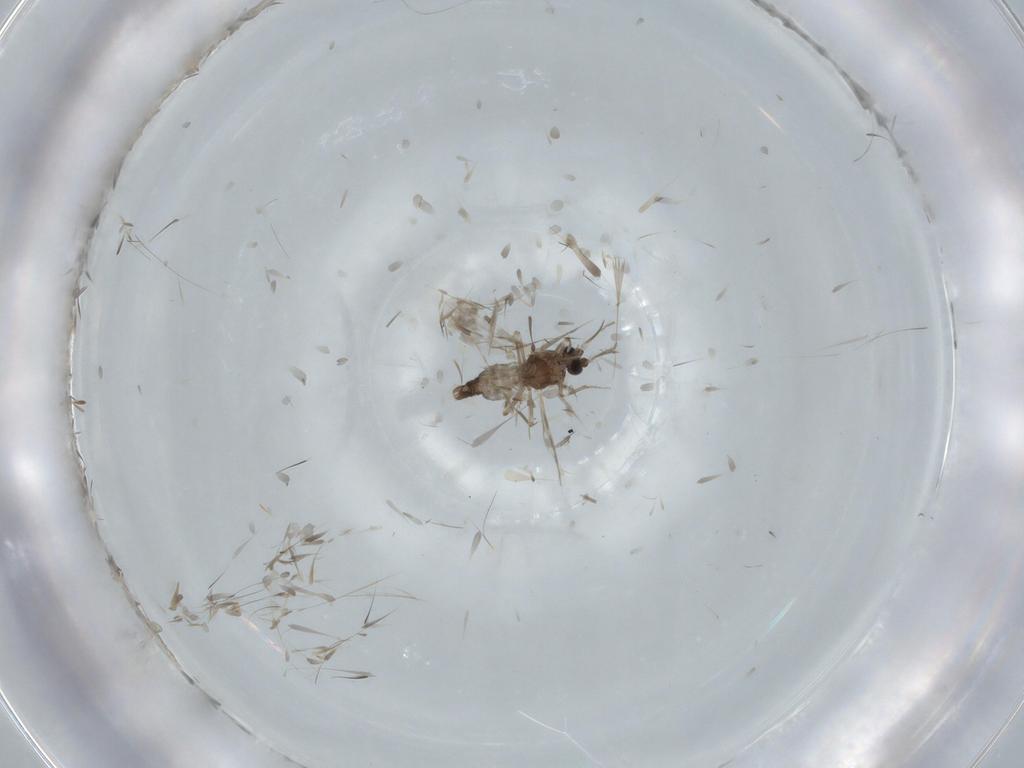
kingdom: Animalia
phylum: Arthropoda
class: Insecta
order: Diptera
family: Ceratopogonidae
